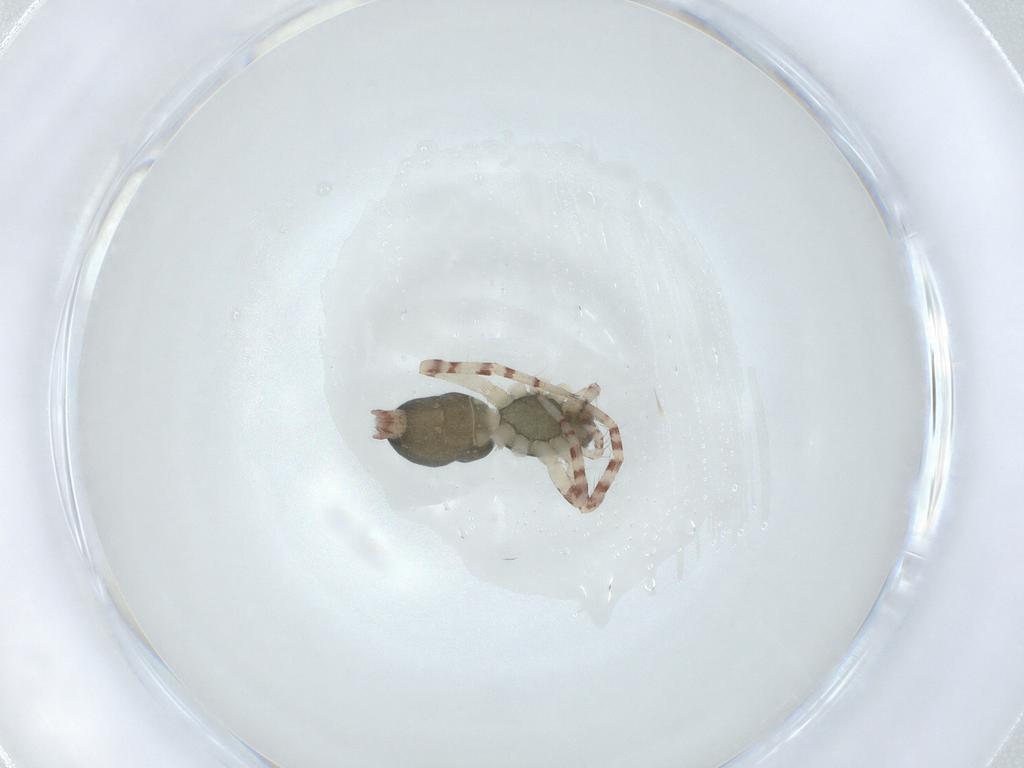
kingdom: Animalia
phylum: Arthropoda
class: Arachnida
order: Araneae
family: Anyphaenidae
